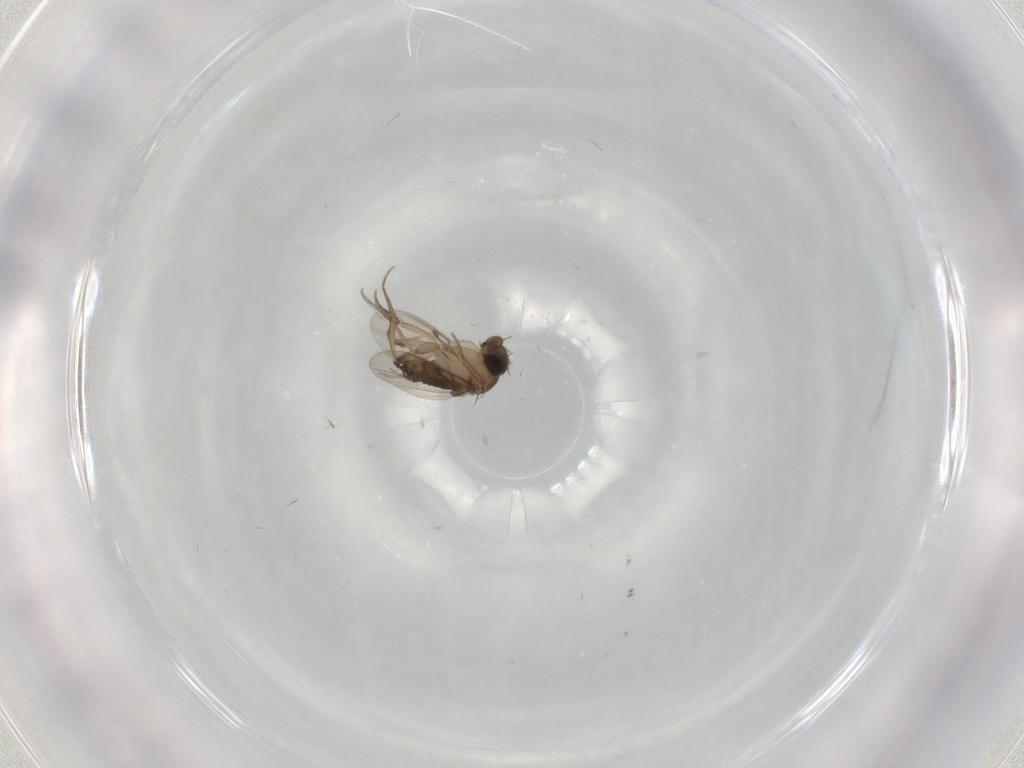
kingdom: Animalia
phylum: Arthropoda
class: Insecta
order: Diptera
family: Phoridae
